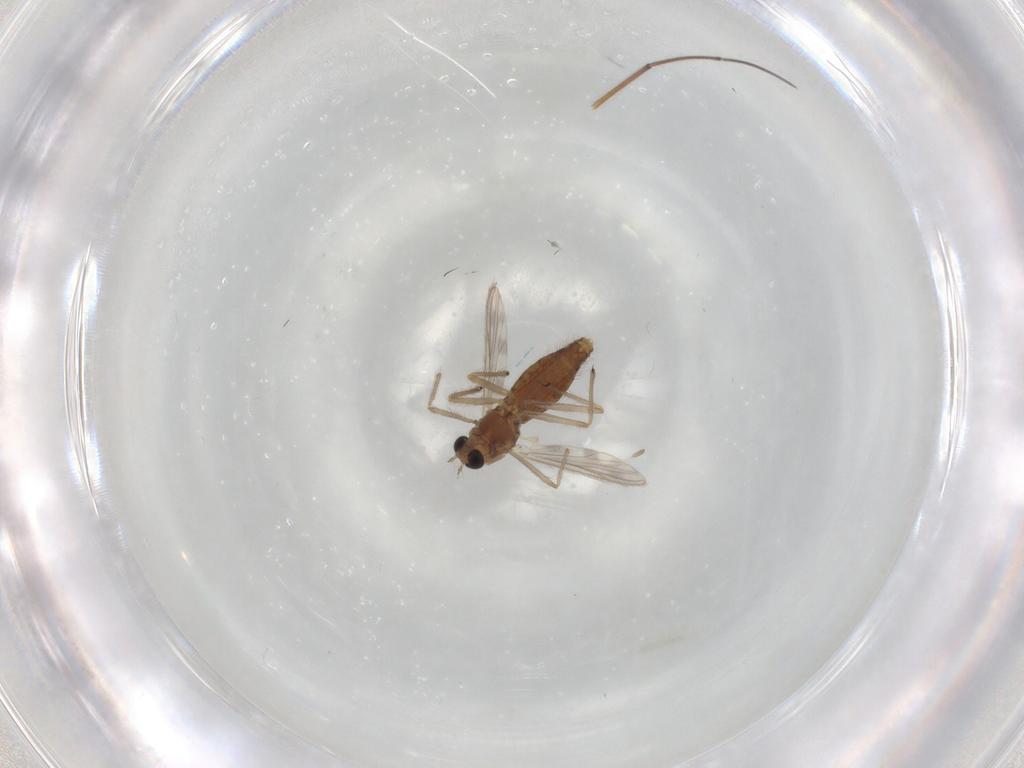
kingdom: Animalia
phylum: Arthropoda
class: Insecta
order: Diptera
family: Chironomidae
